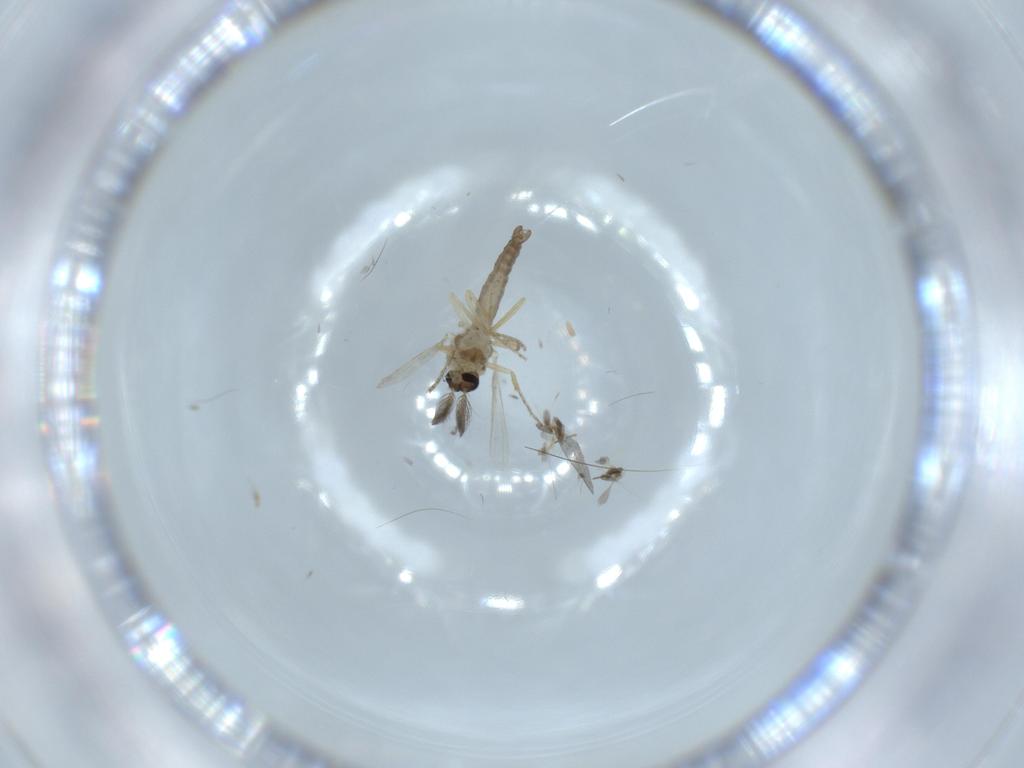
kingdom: Animalia
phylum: Arthropoda
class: Insecta
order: Diptera
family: Ceratopogonidae
